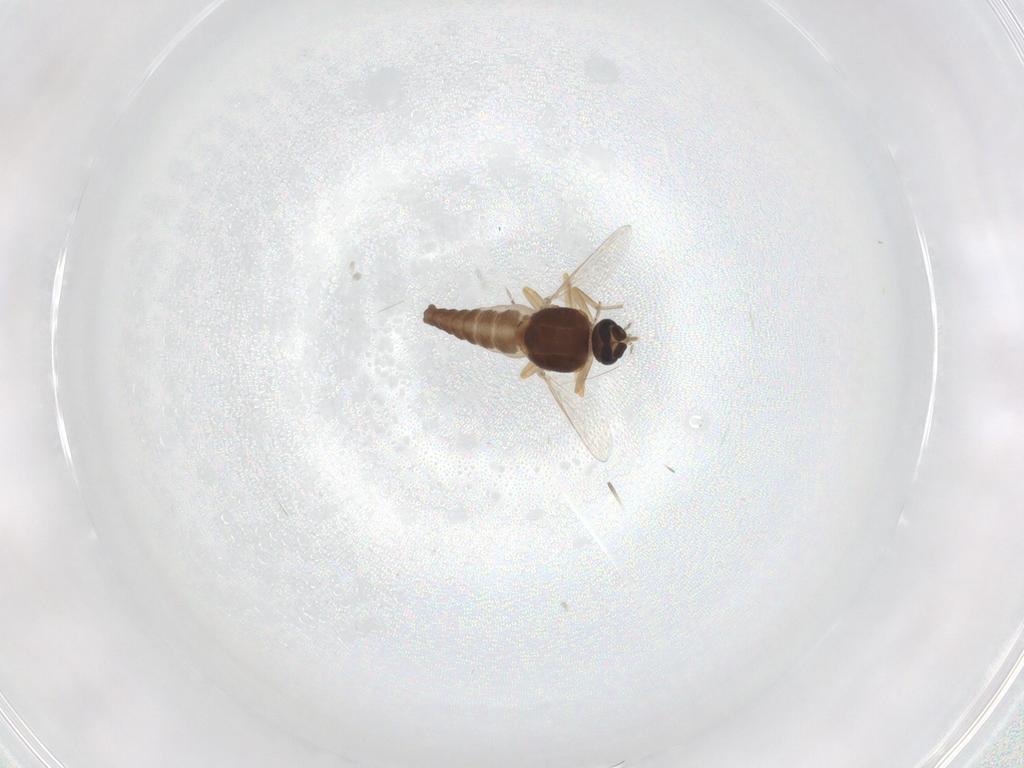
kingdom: Animalia
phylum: Arthropoda
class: Insecta
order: Diptera
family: Ceratopogonidae
